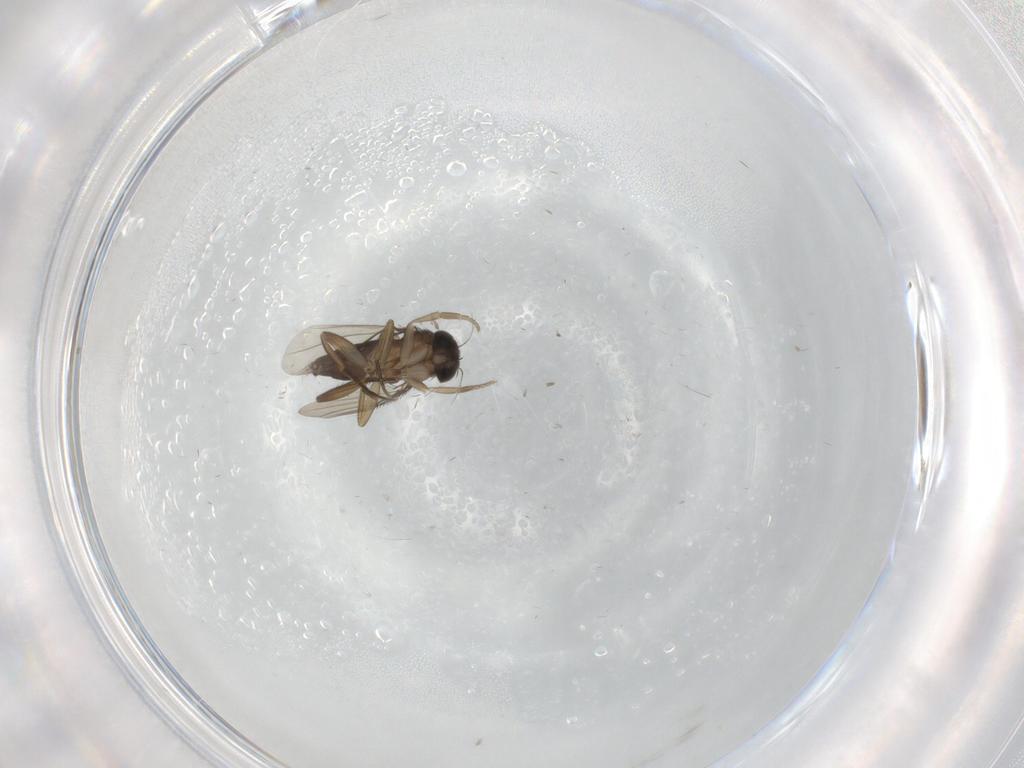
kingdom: Animalia
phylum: Arthropoda
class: Insecta
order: Diptera
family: Phoridae
